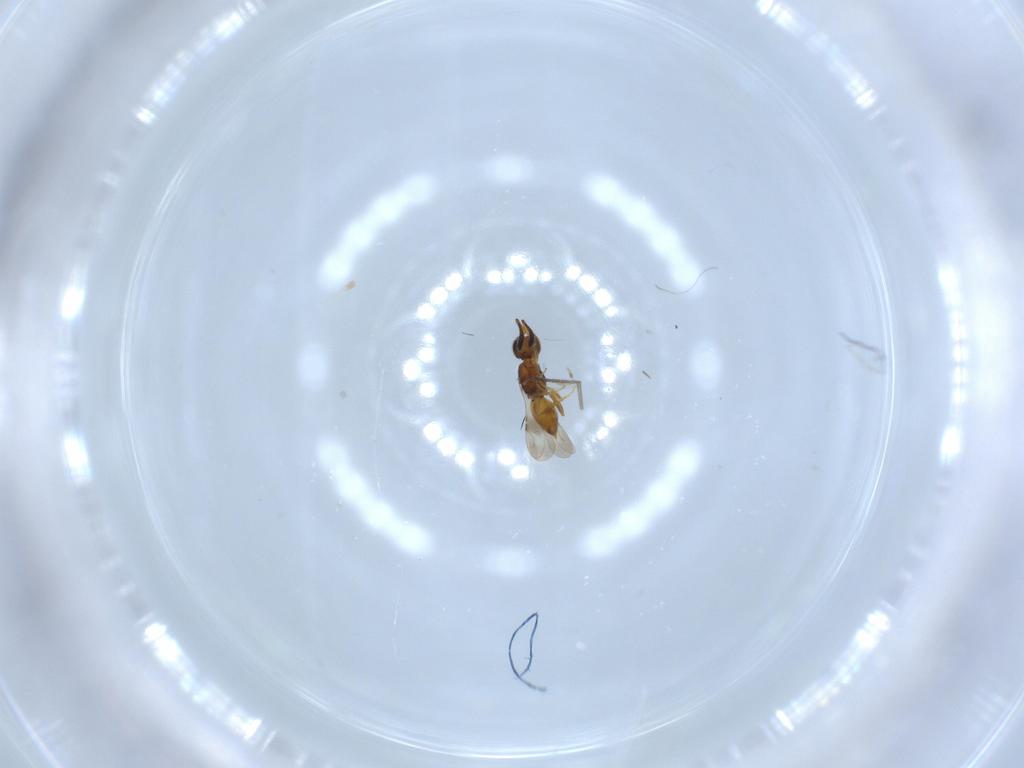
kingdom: Animalia
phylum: Arthropoda
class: Insecta
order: Hymenoptera
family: Scelionidae
